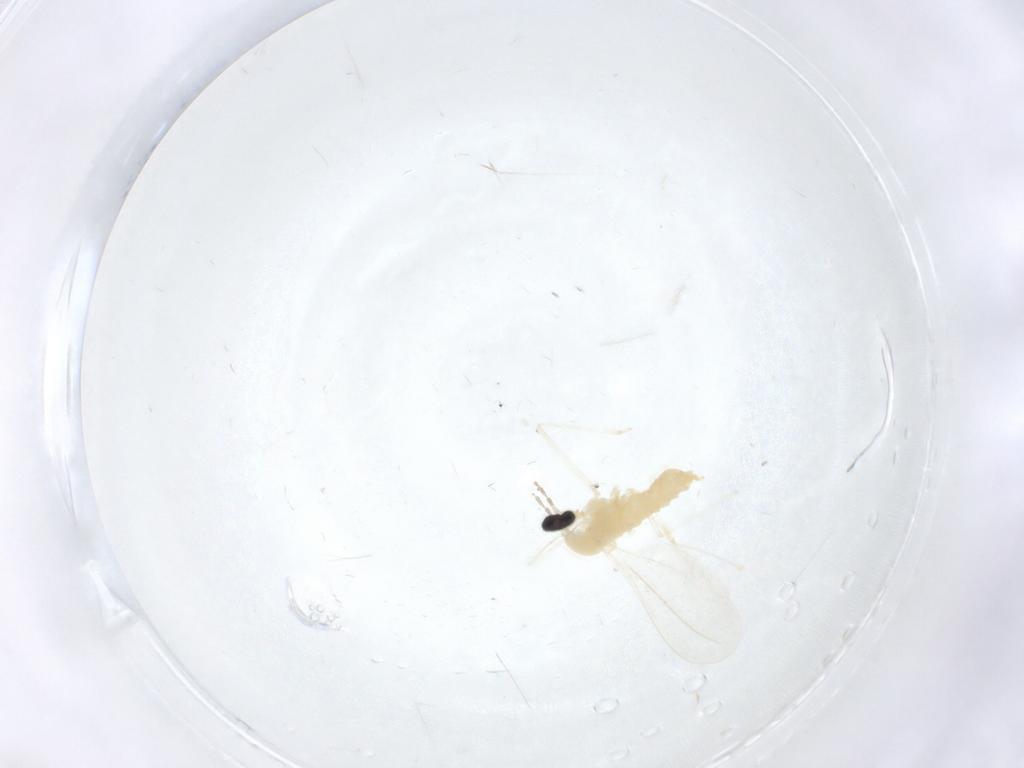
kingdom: Animalia
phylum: Arthropoda
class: Insecta
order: Diptera
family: Cecidomyiidae
